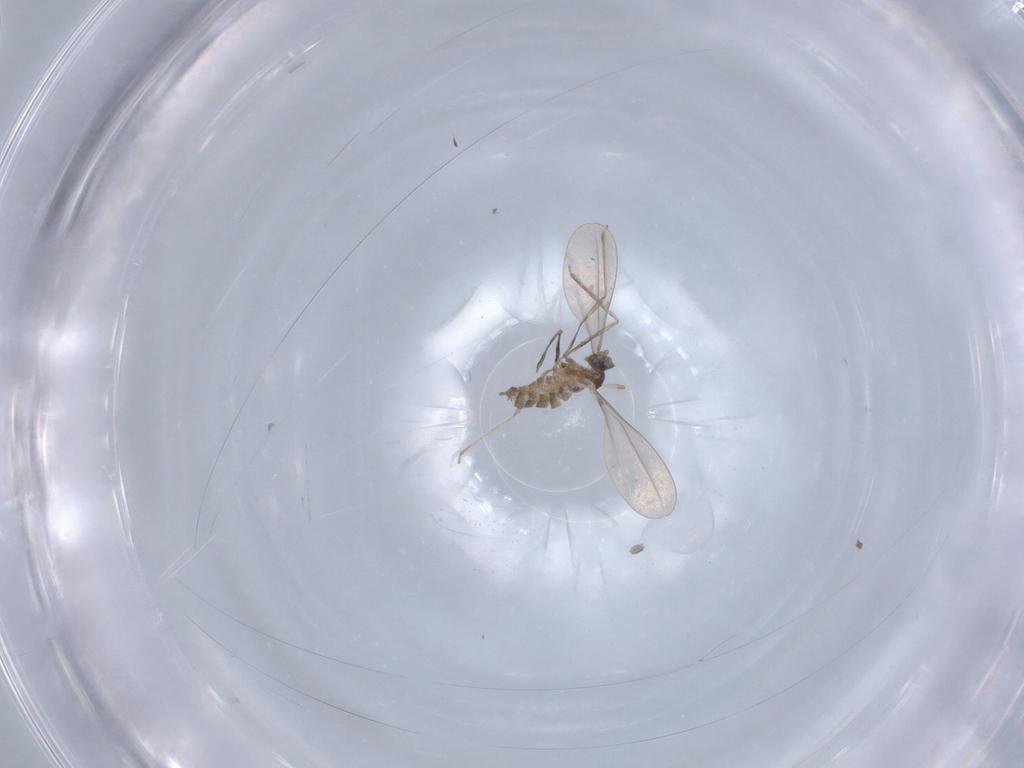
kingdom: Animalia
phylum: Arthropoda
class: Insecta
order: Diptera
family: Cecidomyiidae
